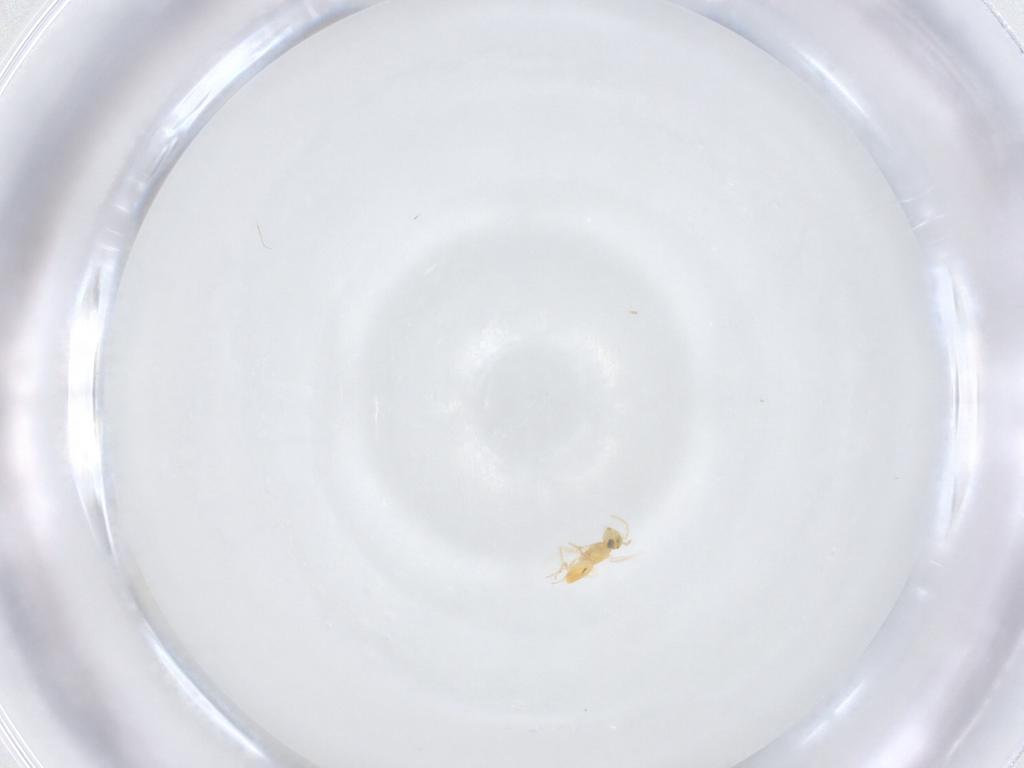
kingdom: Animalia
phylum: Arthropoda
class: Insecta
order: Hymenoptera
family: Aphelinidae
